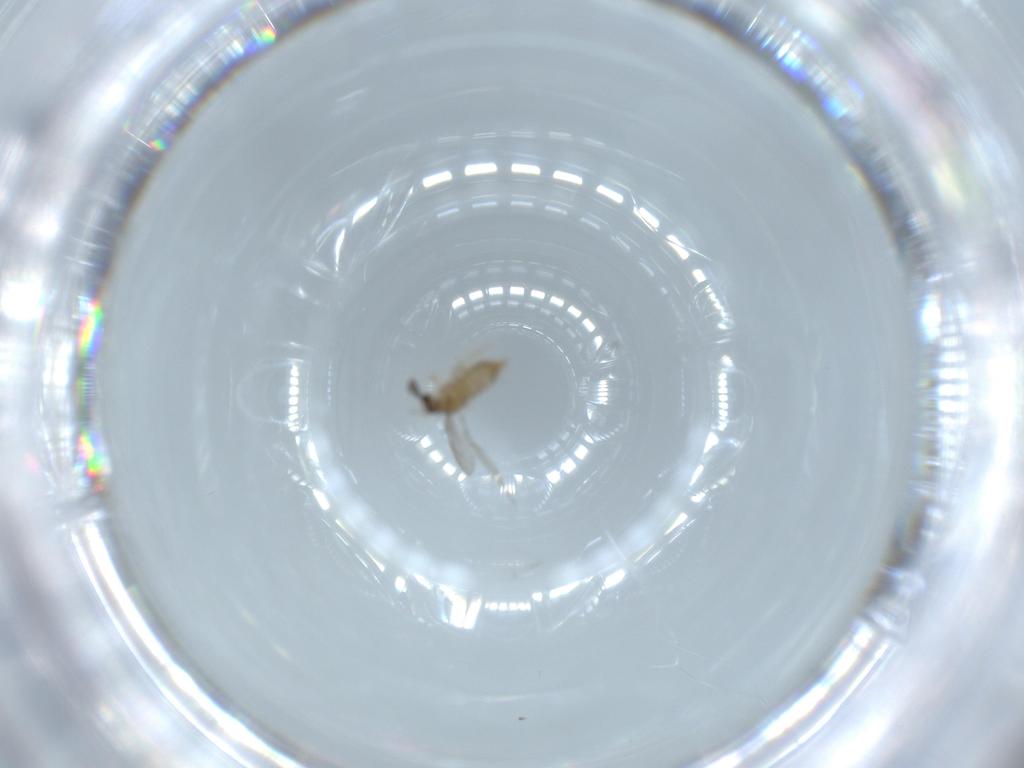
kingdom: Animalia
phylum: Arthropoda
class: Insecta
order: Diptera
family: Cecidomyiidae
